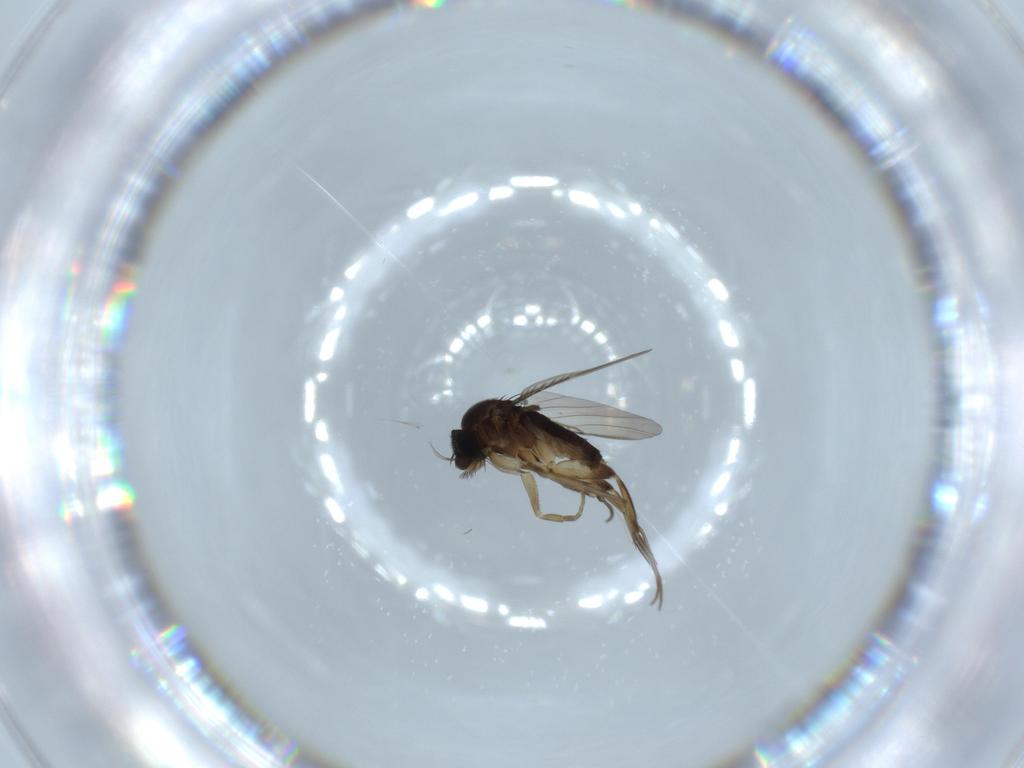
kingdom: Animalia
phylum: Arthropoda
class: Insecta
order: Diptera
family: Phoridae
